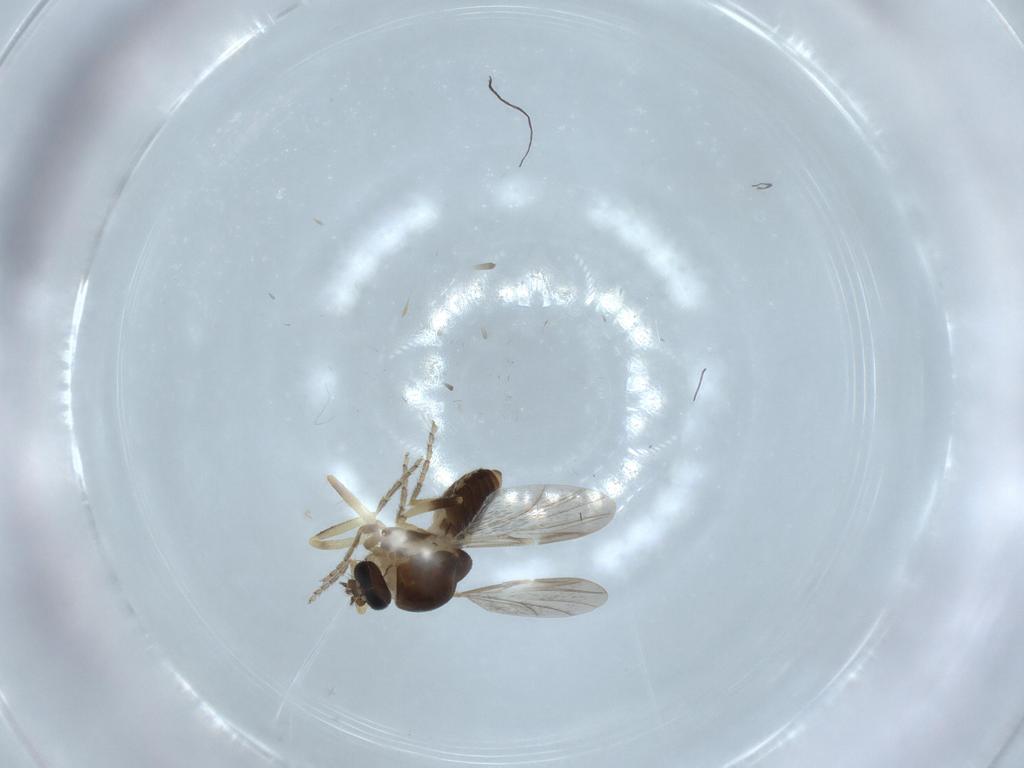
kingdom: Animalia
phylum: Arthropoda
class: Insecta
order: Diptera
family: Ceratopogonidae
